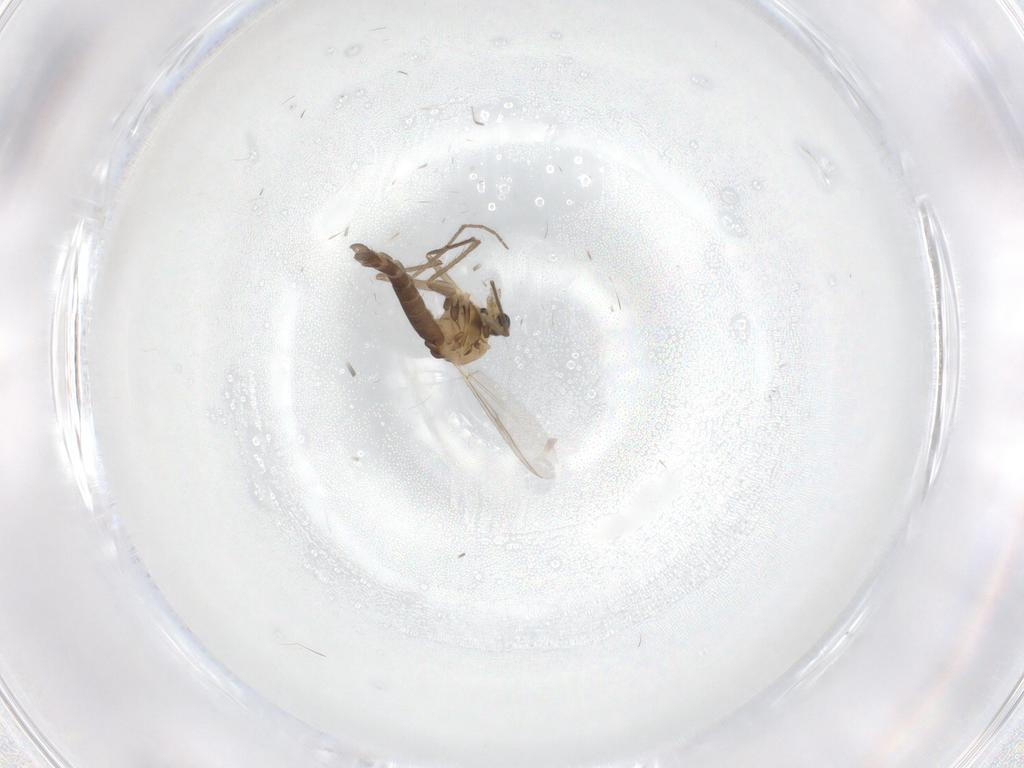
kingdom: Animalia
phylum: Arthropoda
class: Insecta
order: Diptera
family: Chironomidae
